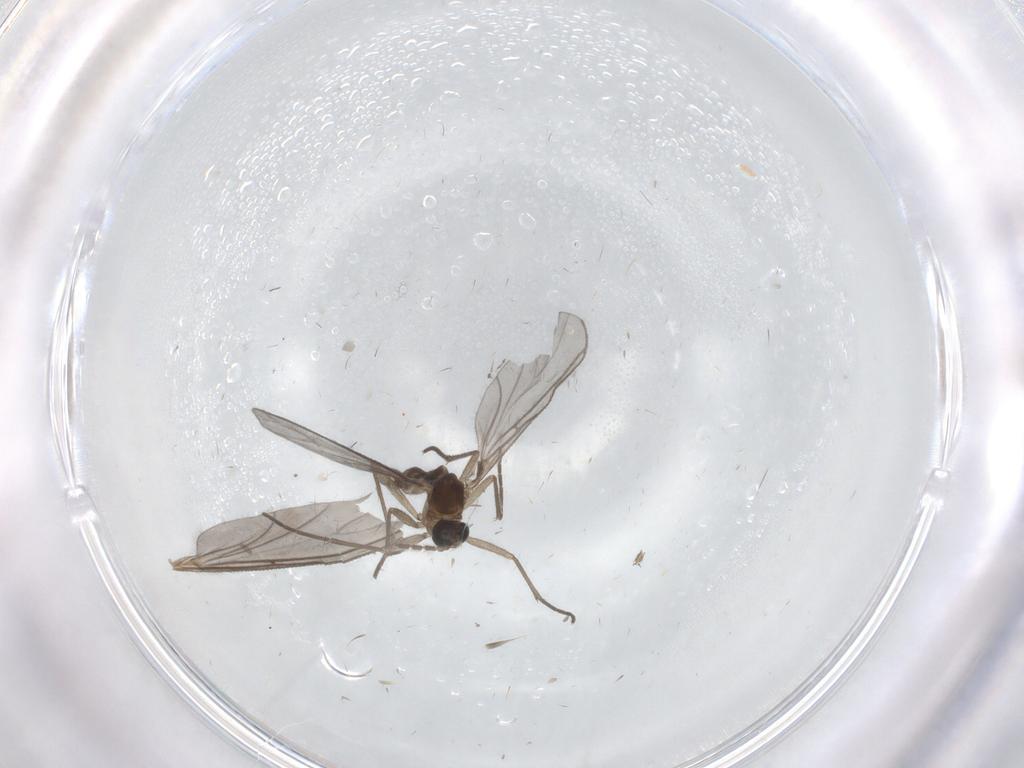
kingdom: Animalia
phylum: Arthropoda
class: Insecta
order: Diptera
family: Mycetophilidae
